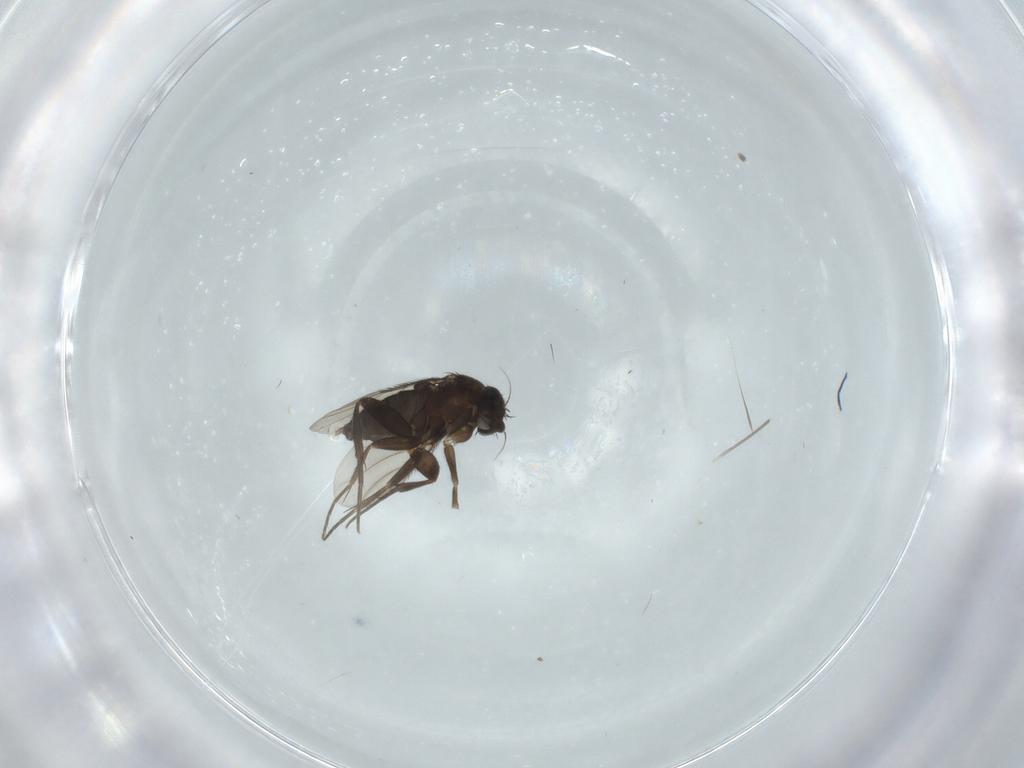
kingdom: Animalia
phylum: Arthropoda
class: Insecta
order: Diptera
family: Cecidomyiidae
